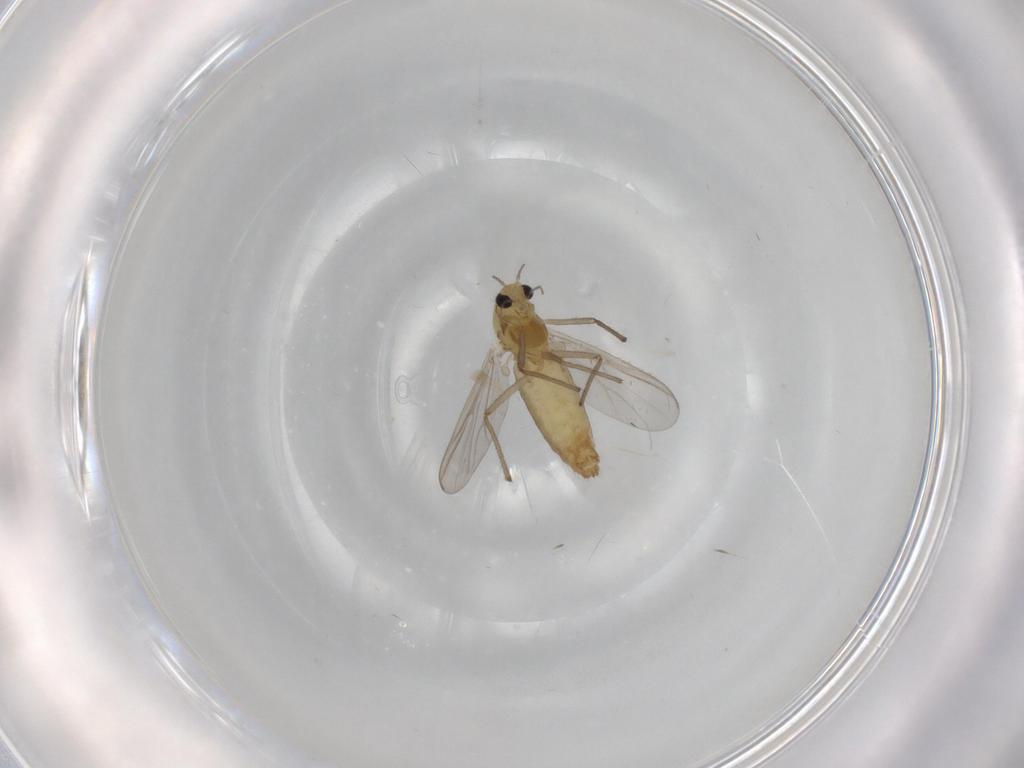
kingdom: Animalia
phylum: Arthropoda
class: Insecta
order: Diptera
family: Chironomidae
